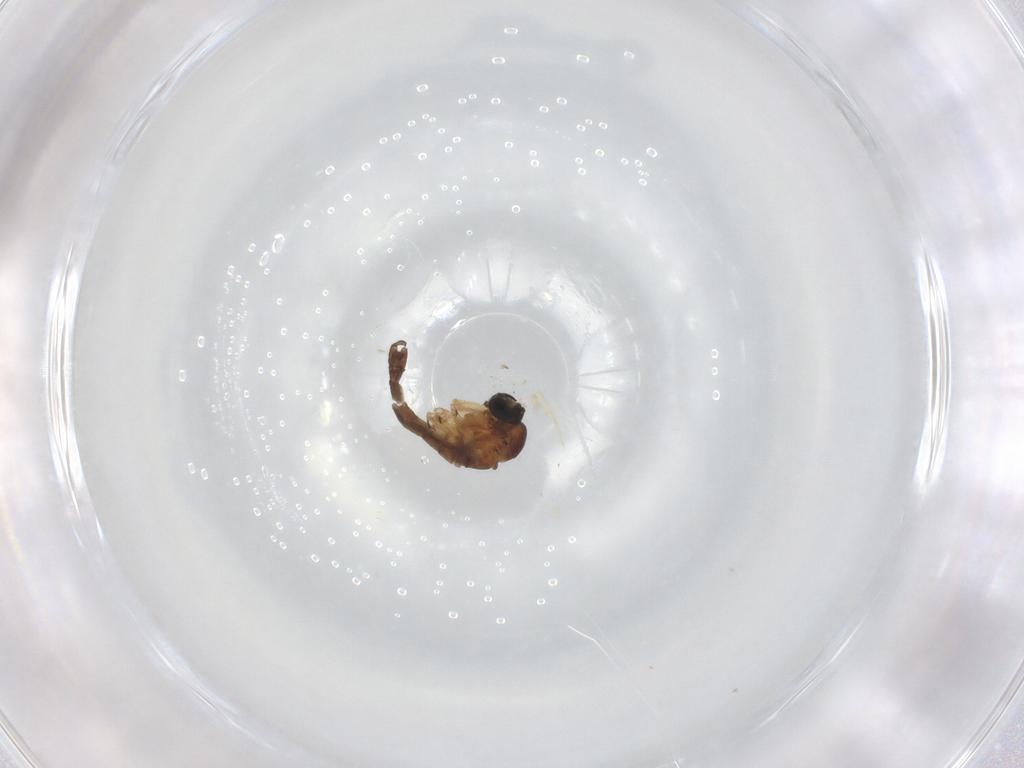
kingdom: Animalia
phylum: Arthropoda
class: Insecta
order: Diptera
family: Sciaridae
